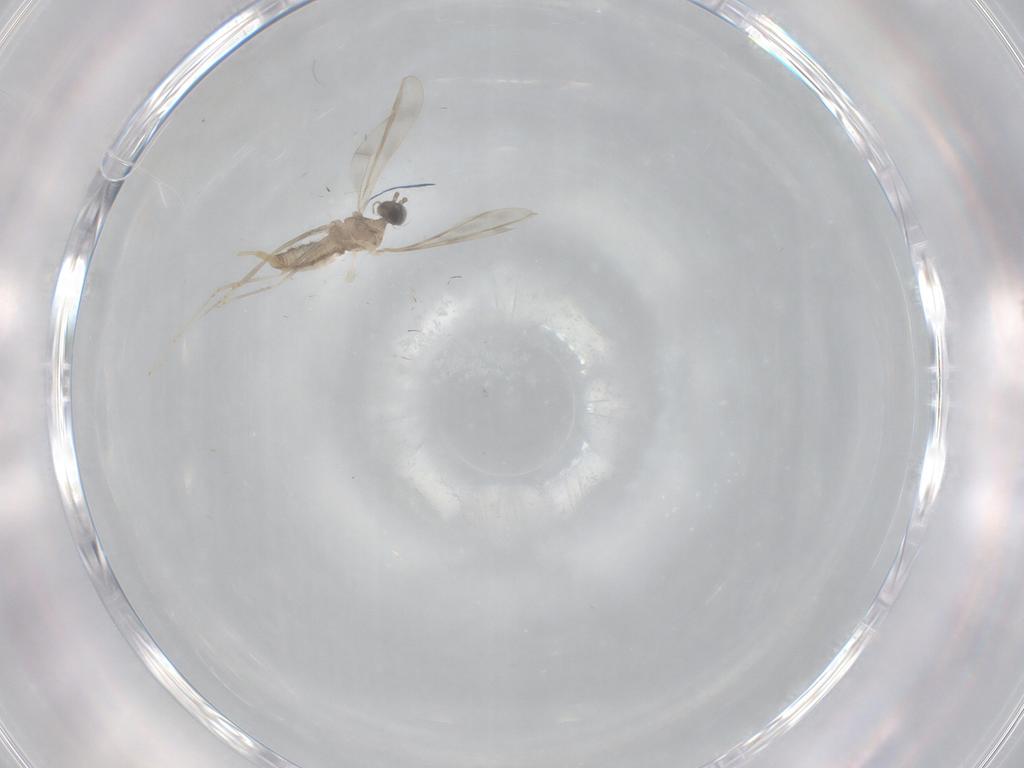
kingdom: Animalia
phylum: Arthropoda
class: Insecta
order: Diptera
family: Cecidomyiidae
